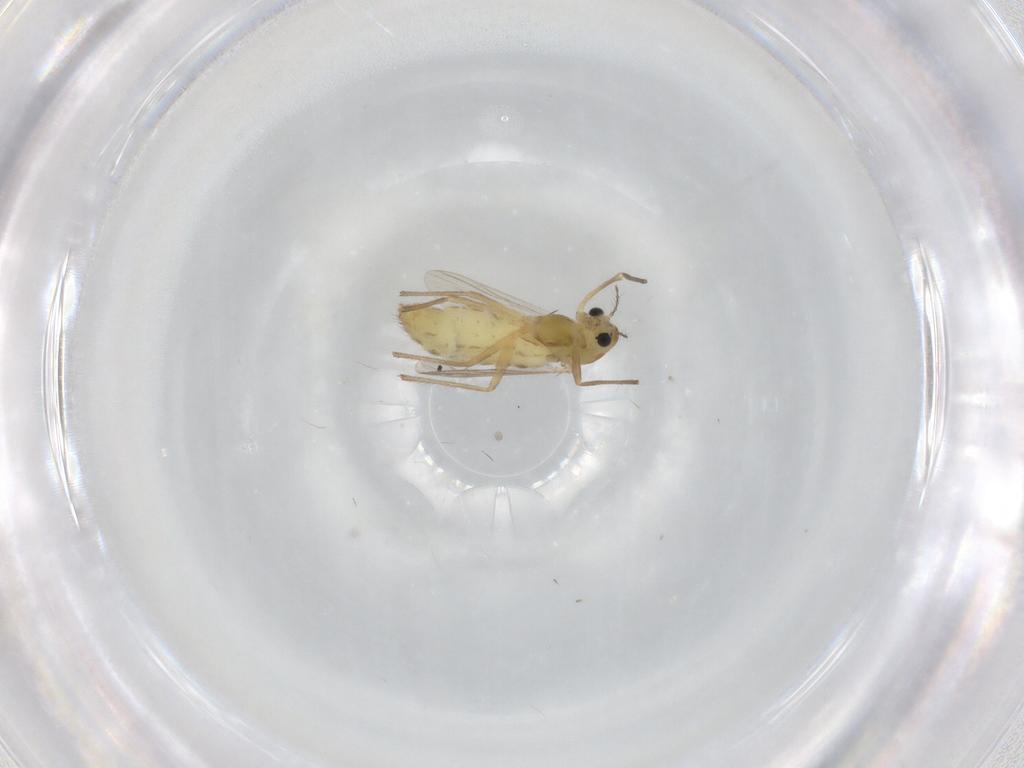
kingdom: Animalia
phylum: Arthropoda
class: Insecta
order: Diptera
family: Chironomidae
